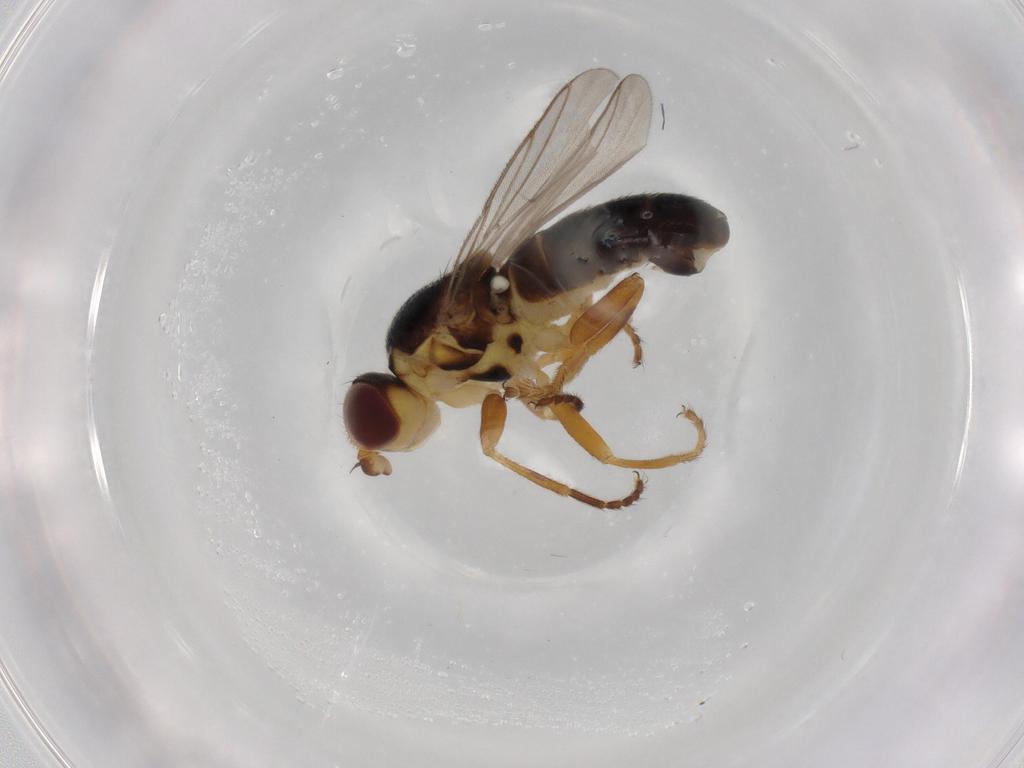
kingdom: Animalia
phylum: Arthropoda
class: Insecta
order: Diptera
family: Chloropidae
